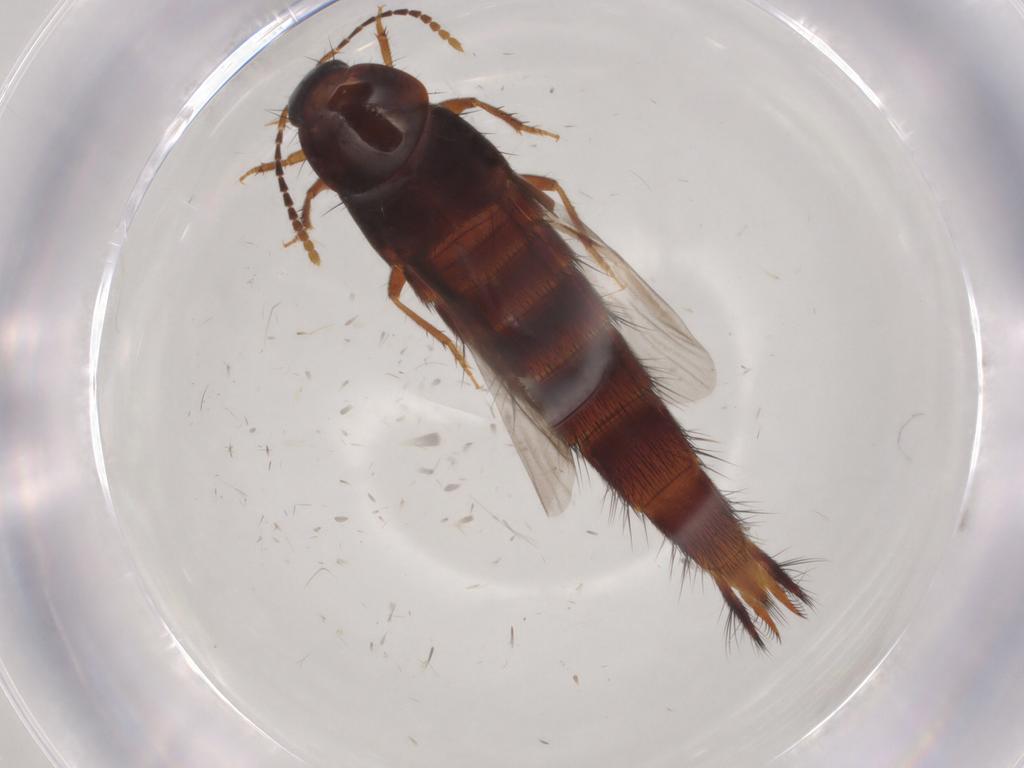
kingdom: Animalia
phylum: Arthropoda
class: Insecta
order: Coleoptera
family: Staphylinidae
